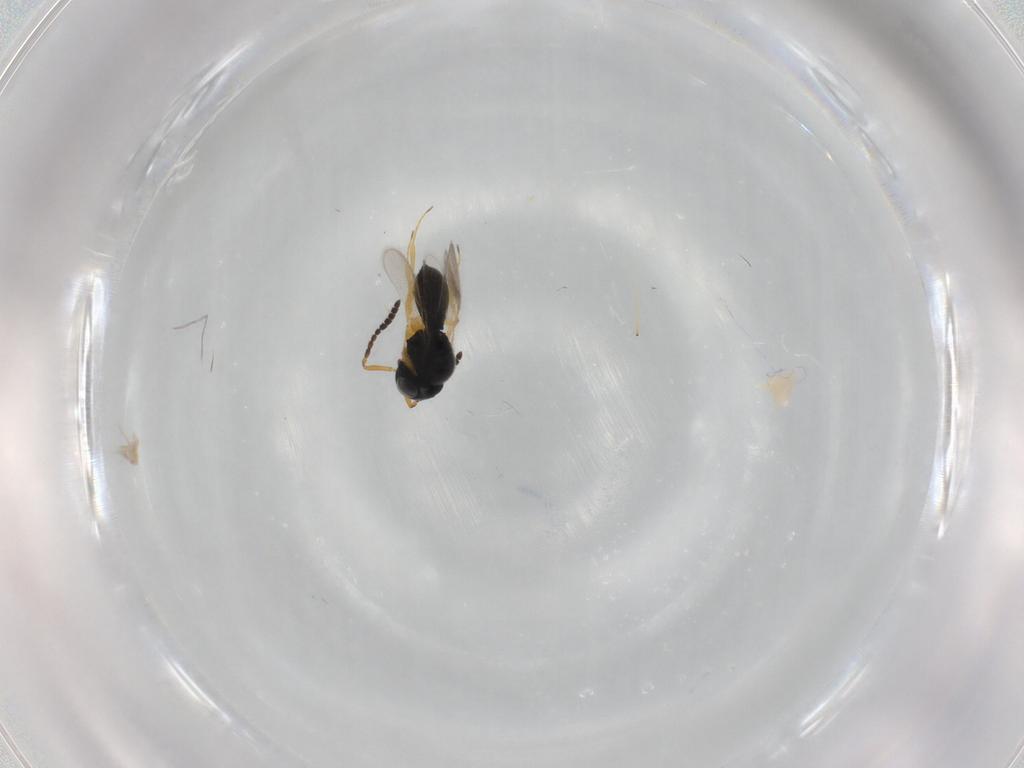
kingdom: Animalia
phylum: Arthropoda
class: Insecta
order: Hymenoptera
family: Scelionidae
